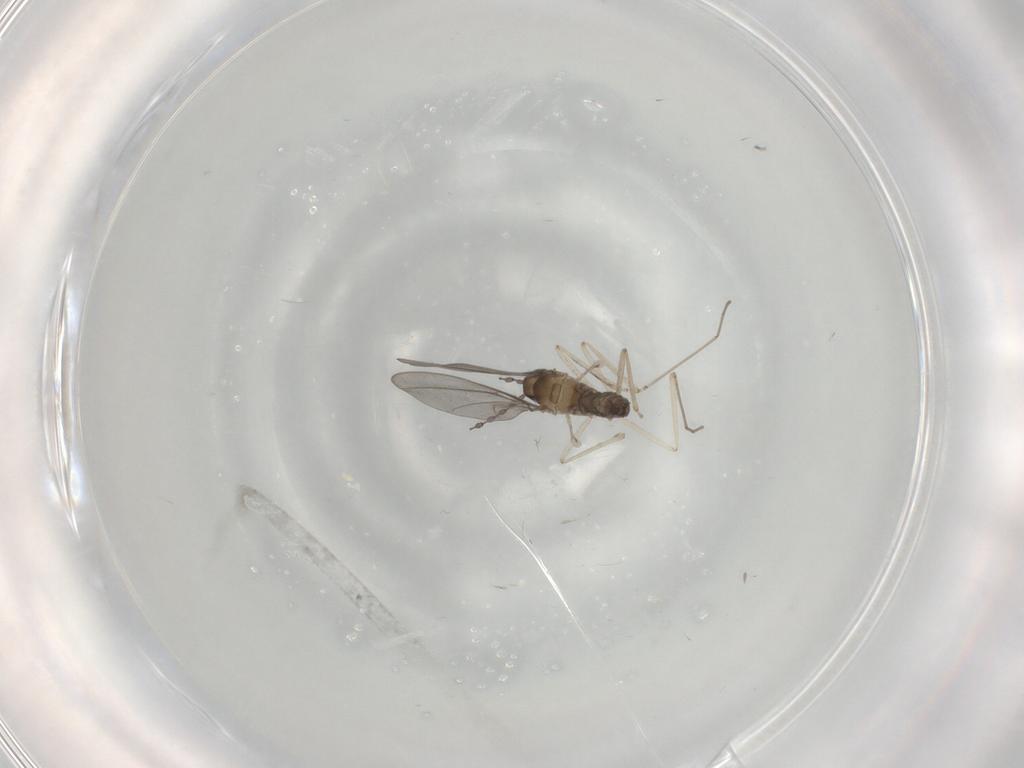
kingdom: Animalia
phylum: Arthropoda
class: Insecta
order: Diptera
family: Cecidomyiidae
